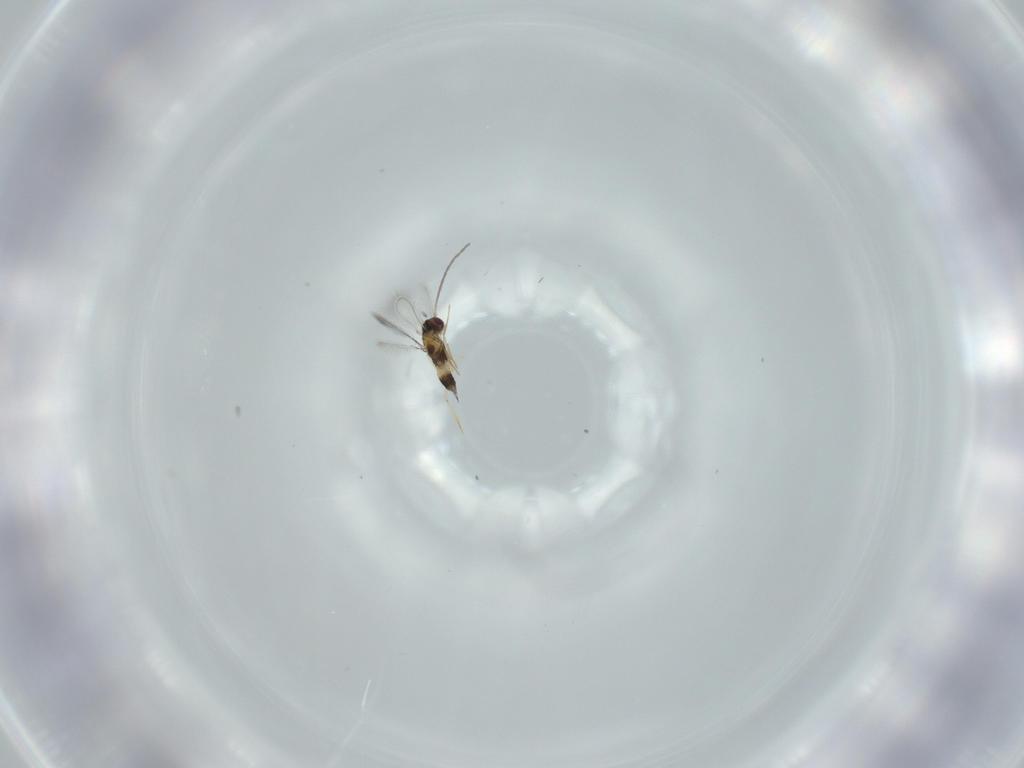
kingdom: Animalia
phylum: Arthropoda
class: Insecta
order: Hymenoptera
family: Mymaridae
